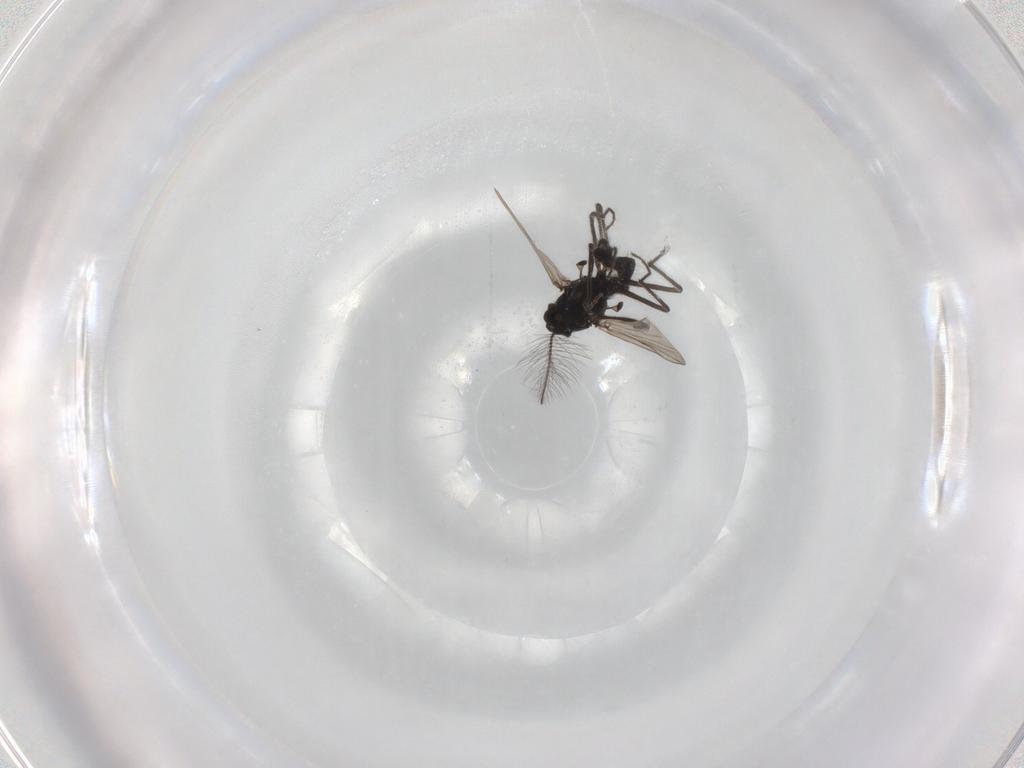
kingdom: Animalia
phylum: Arthropoda
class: Insecta
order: Diptera
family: Chironomidae
